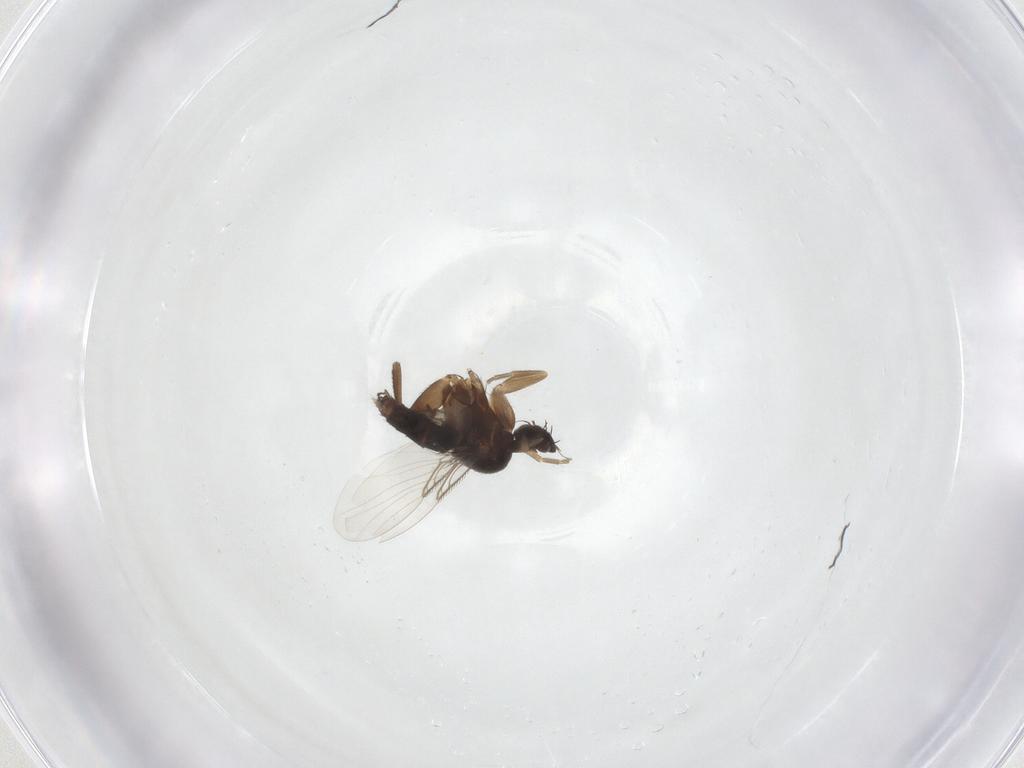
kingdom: Animalia
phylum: Arthropoda
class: Insecta
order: Diptera
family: Phoridae
